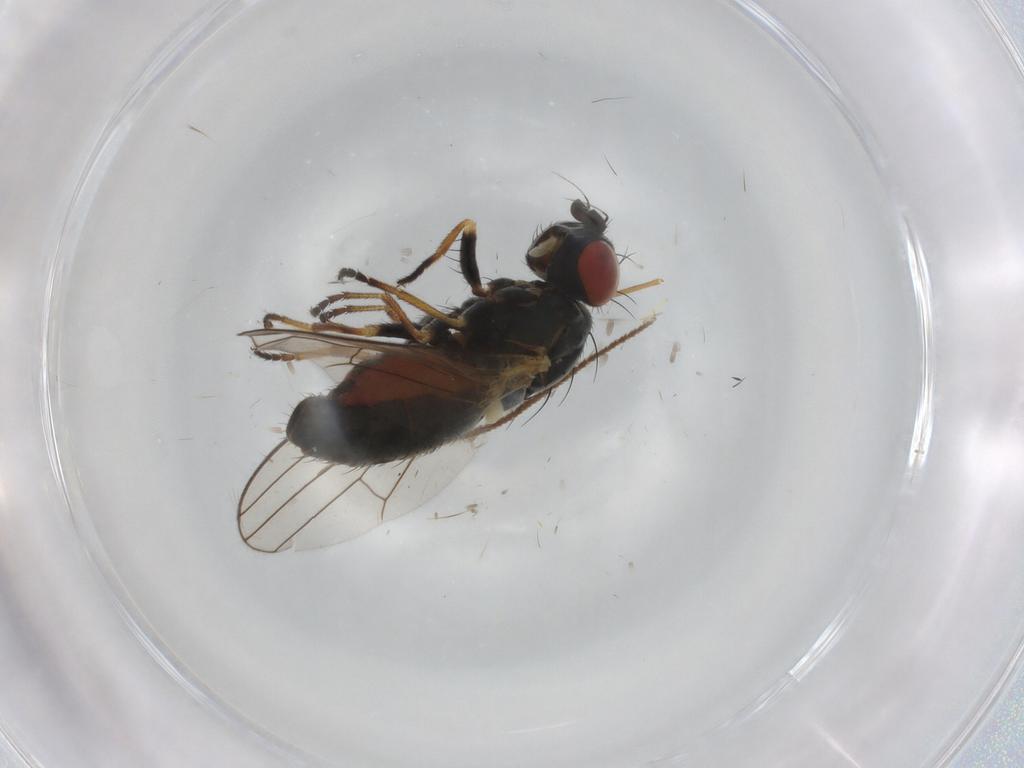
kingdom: Animalia
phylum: Arthropoda
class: Insecta
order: Diptera
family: Chamaemyiidae
